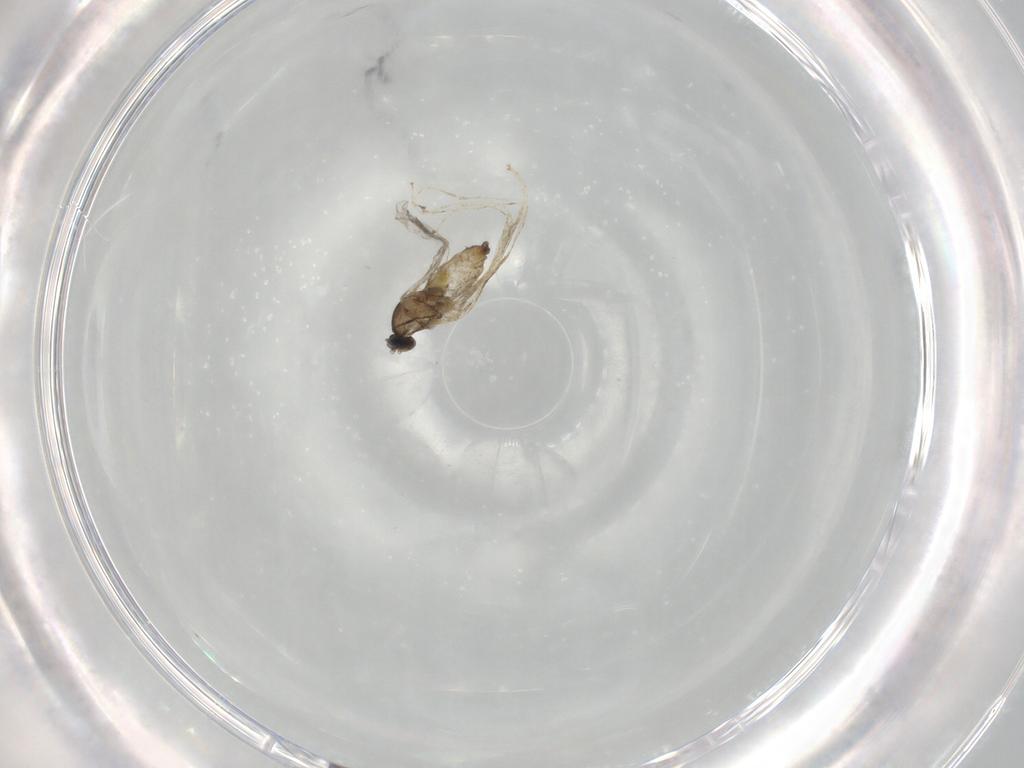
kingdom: Animalia
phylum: Arthropoda
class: Insecta
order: Diptera
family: Cecidomyiidae
